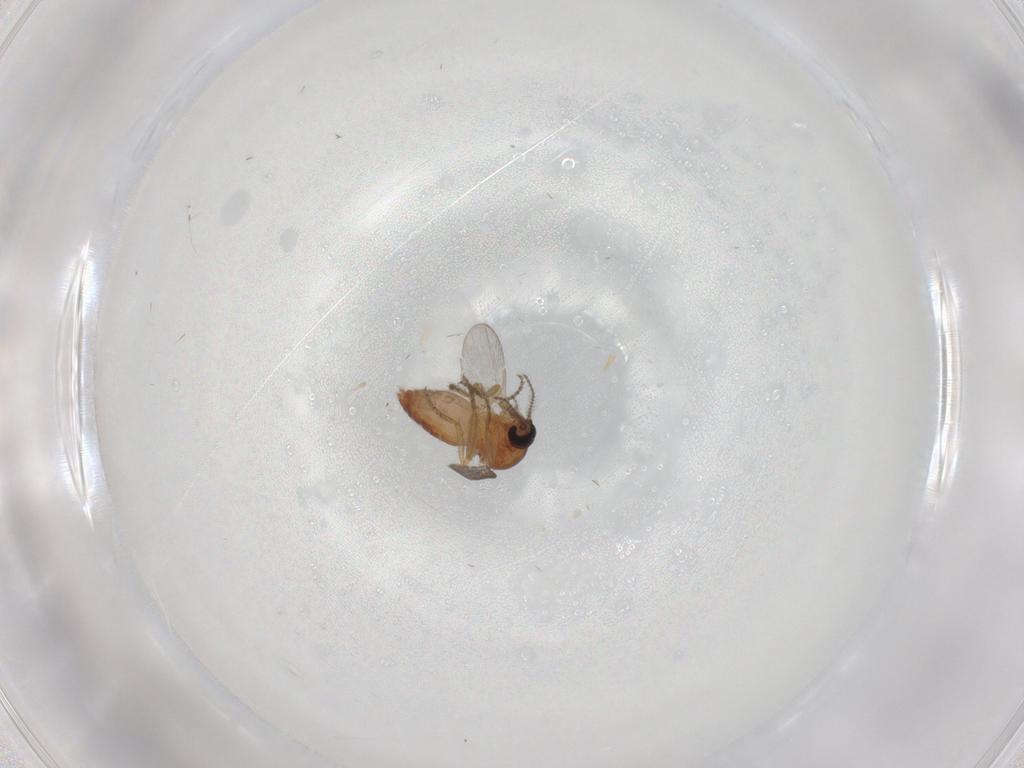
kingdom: Animalia
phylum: Arthropoda
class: Insecta
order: Diptera
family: Ceratopogonidae
